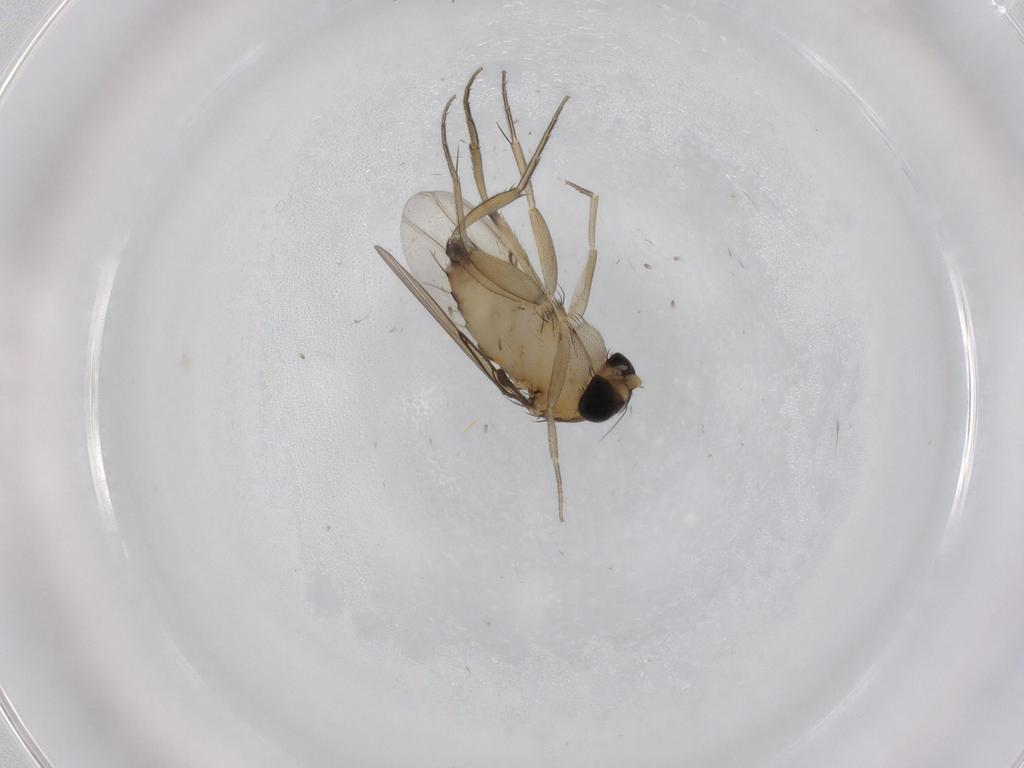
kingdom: Animalia
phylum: Arthropoda
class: Insecta
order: Diptera
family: Phoridae
